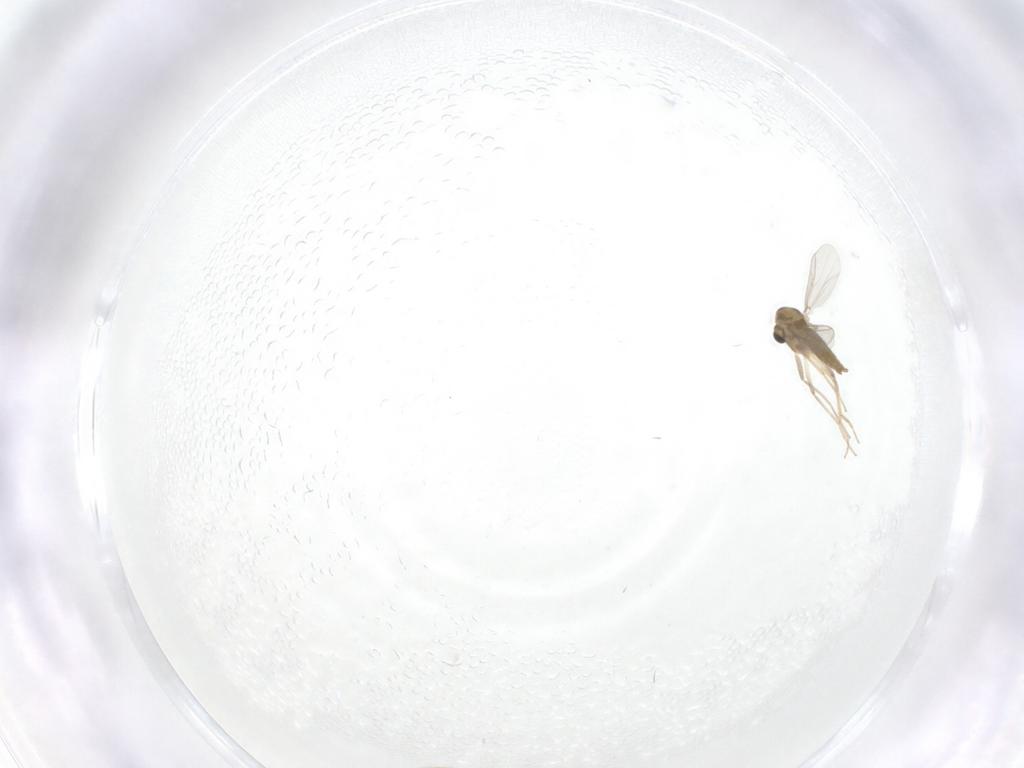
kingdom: Animalia
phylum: Arthropoda
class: Insecta
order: Diptera
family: Chironomidae
